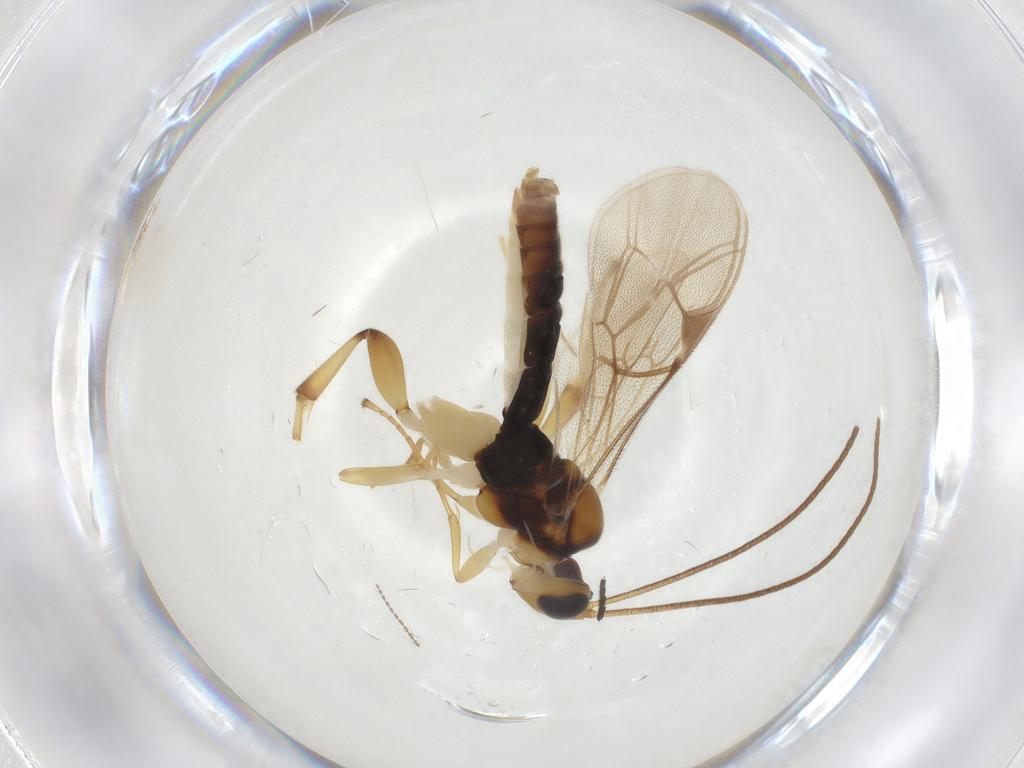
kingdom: Animalia
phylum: Arthropoda
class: Insecta
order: Hymenoptera
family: Ichneumonidae
